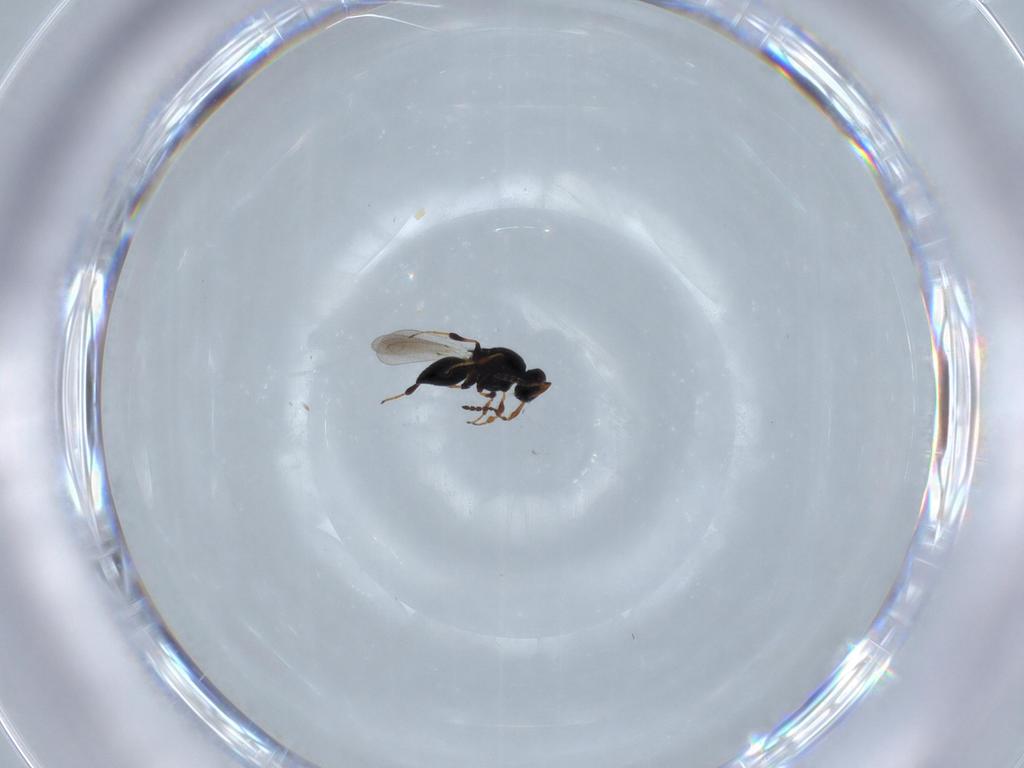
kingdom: Animalia
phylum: Arthropoda
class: Insecta
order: Hymenoptera
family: Platygastridae
